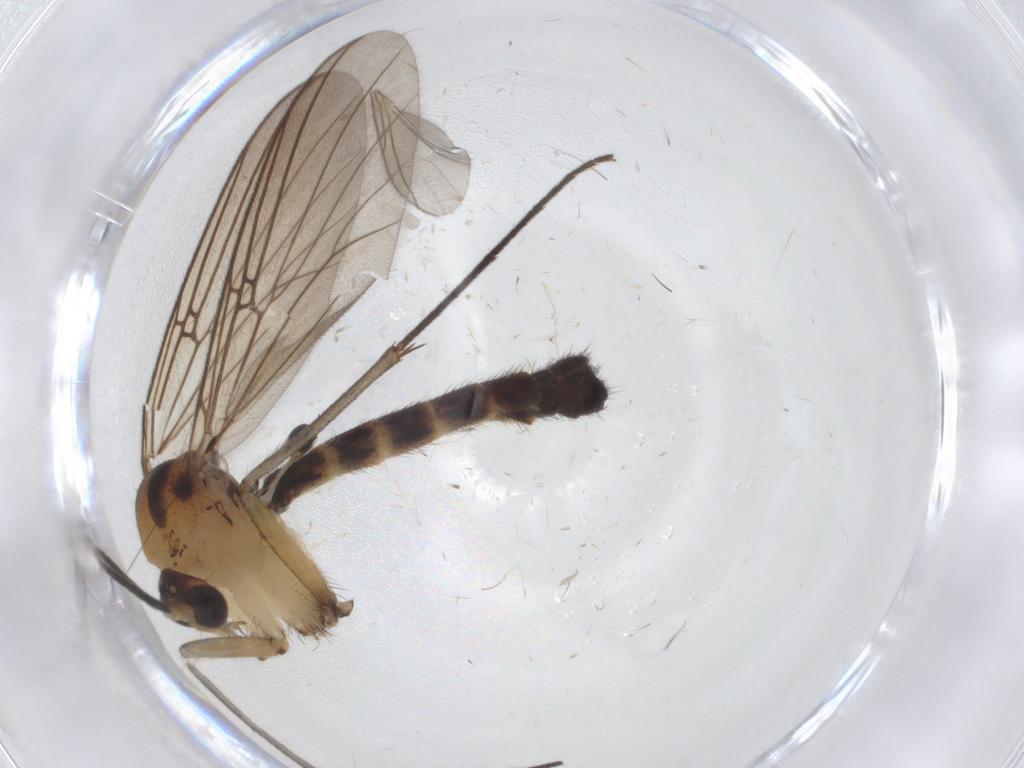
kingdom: Animalia
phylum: Arthropoda
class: Insecta
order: Diptera
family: Mycetophilidae
